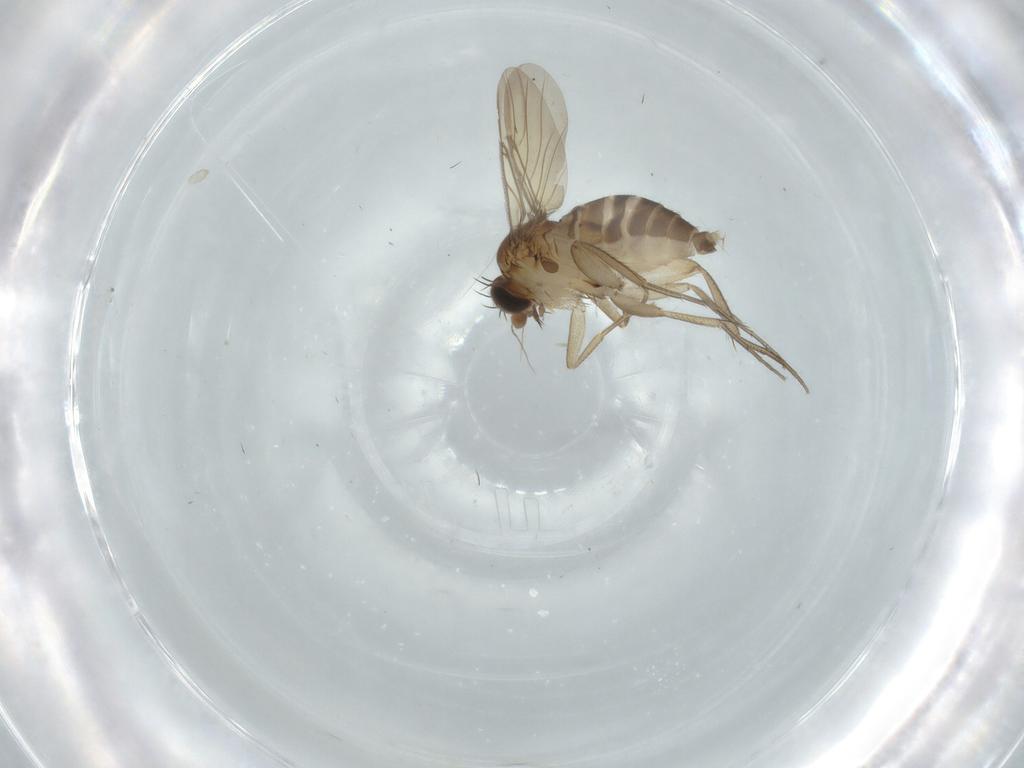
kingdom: Animalia
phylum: Arthropoda
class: Insecta
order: Diptera
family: Phoridae
